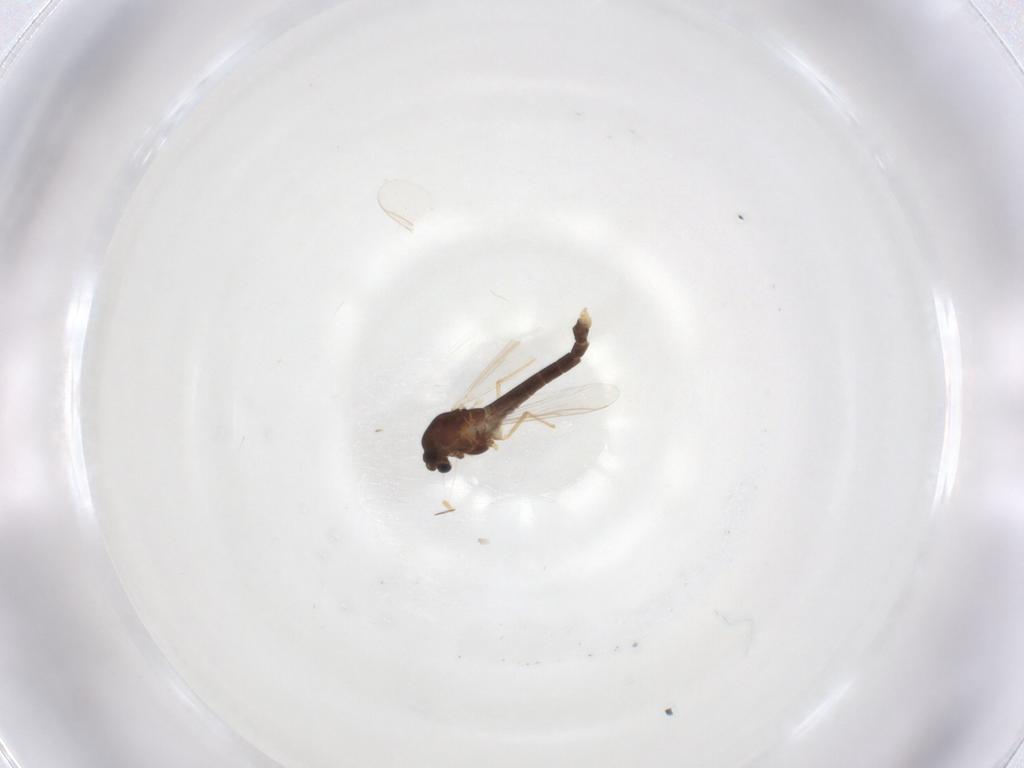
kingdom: Animalia
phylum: Arthropoda
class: Insecta
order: Diptera
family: Chironomidae
